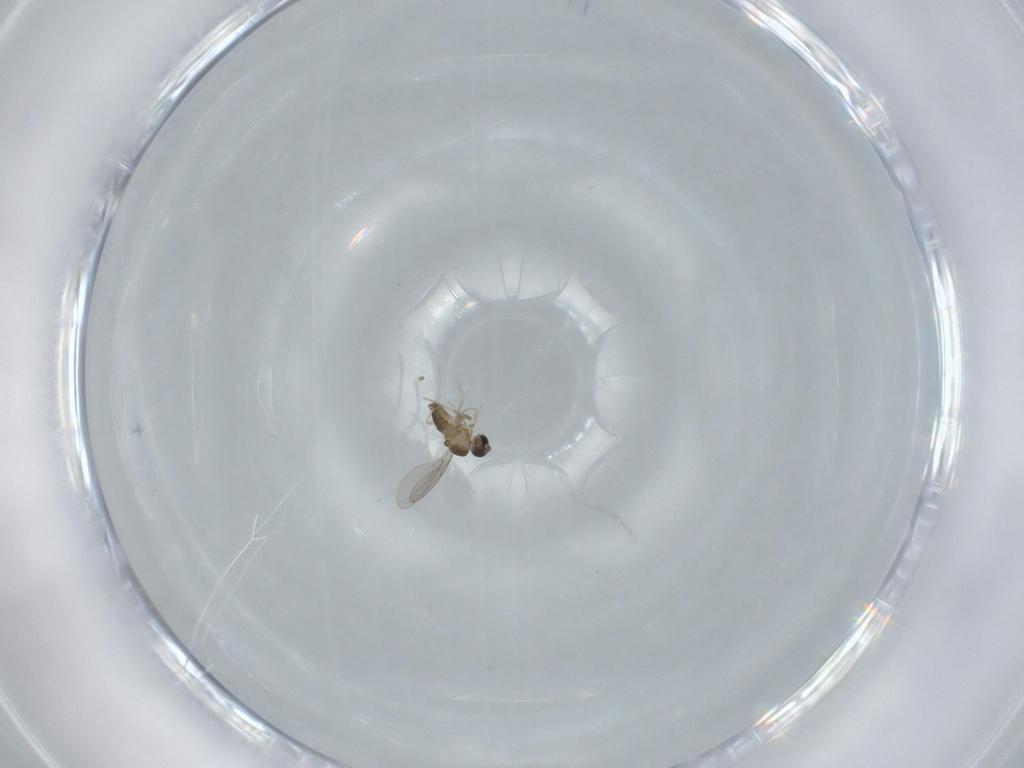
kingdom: Animalia
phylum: Arthropoda
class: Insecta
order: Diptera
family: Cecidomyiidae
